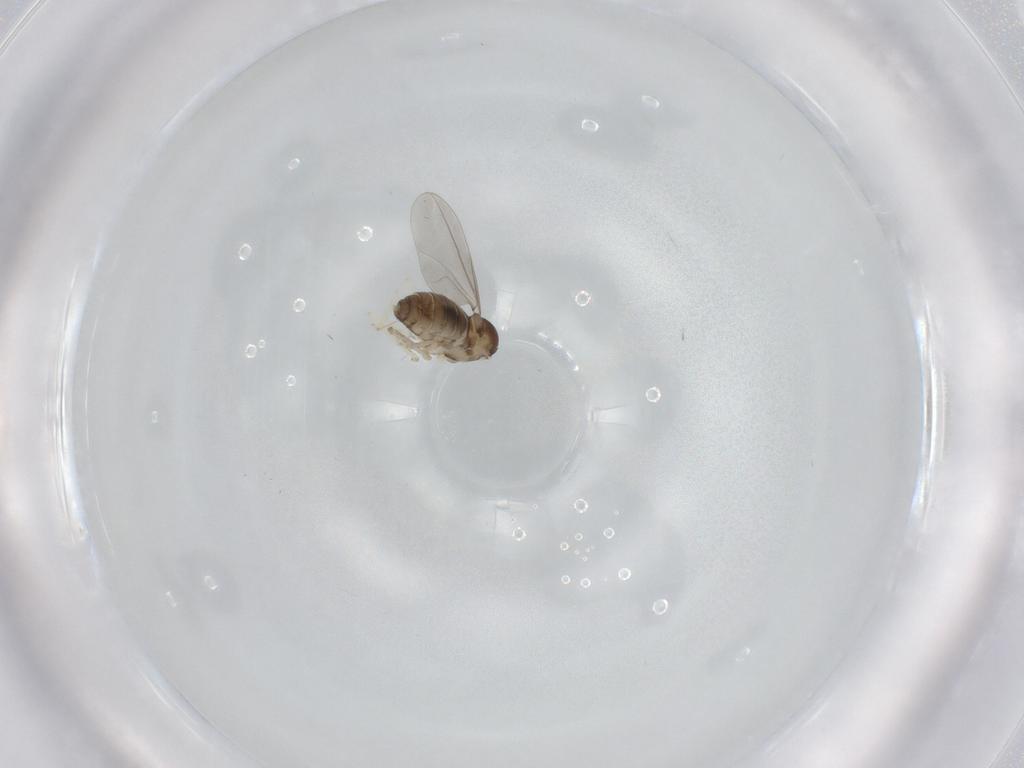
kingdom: Animalia
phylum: Arthropoda
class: Insecta
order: Diptera
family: Cecidomyiidae
